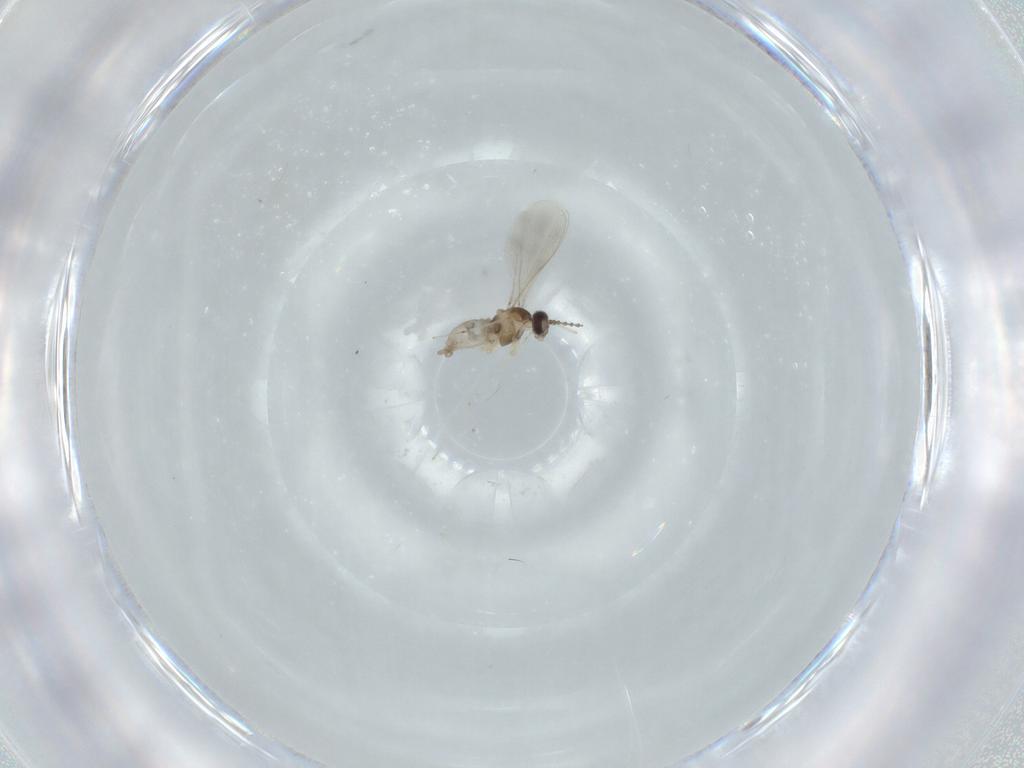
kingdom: Animalia
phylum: Arthropoda
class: Insecta
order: Diptera
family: Cecidomyiidae
